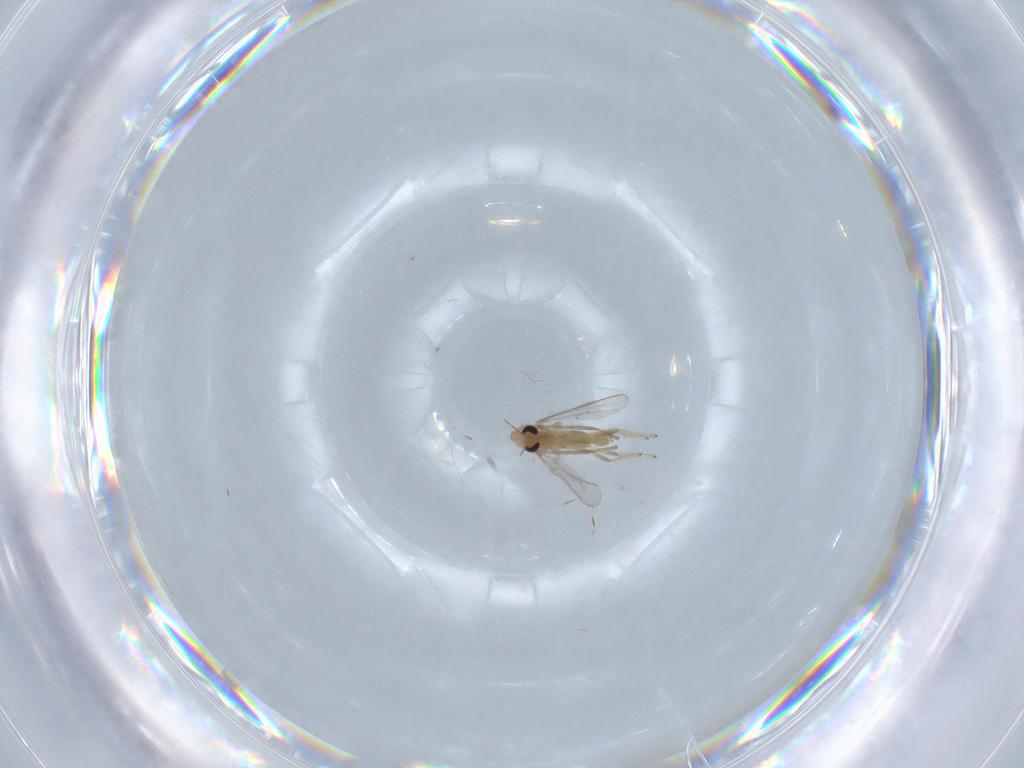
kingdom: Animalia
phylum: Arthropoda
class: Insecta
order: Diptera
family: Chironomidae
